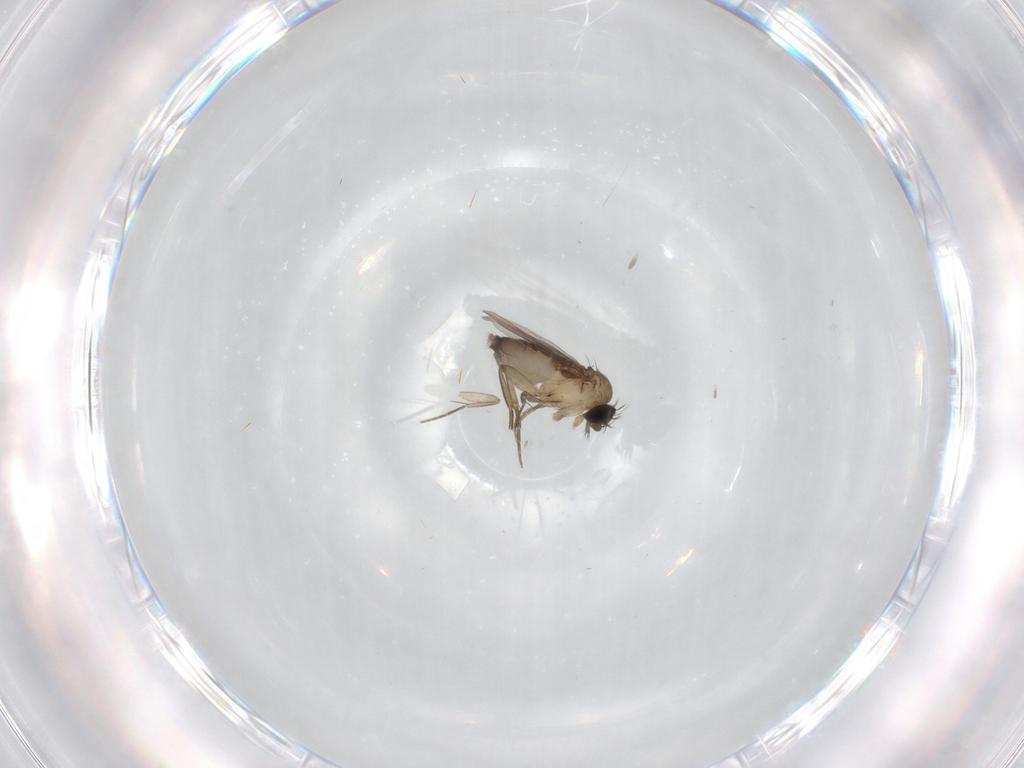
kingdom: Animalia
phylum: Arthropoda
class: Insecta
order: Diptera
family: Phoridae
